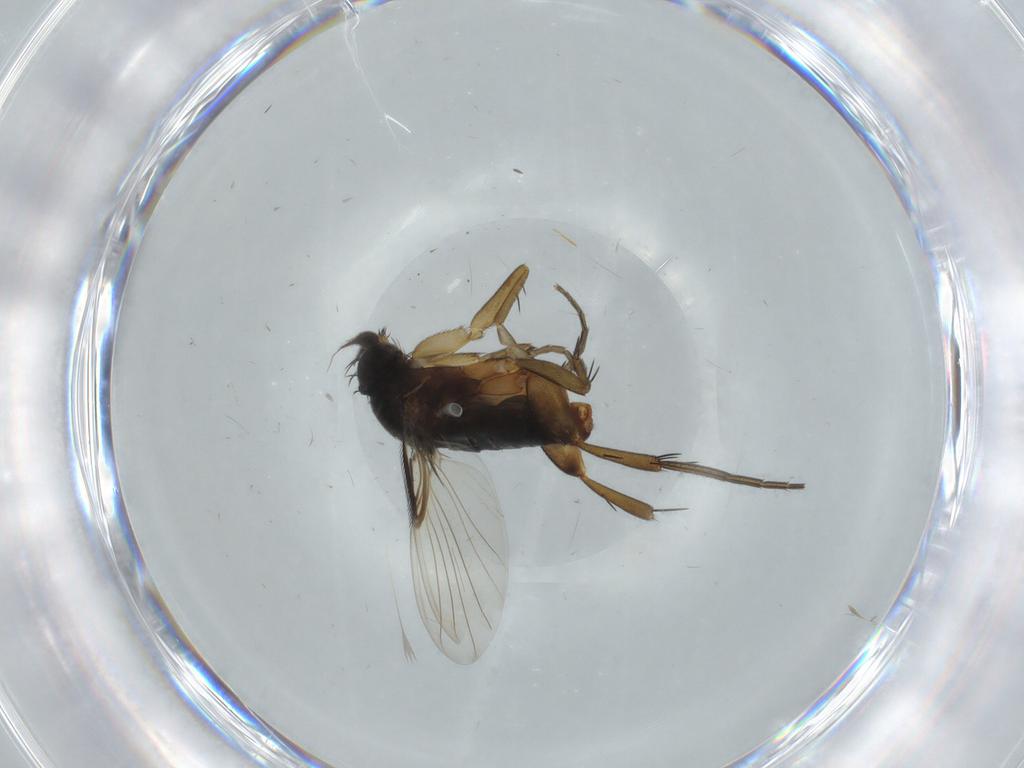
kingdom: Animalia
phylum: Arthropoda
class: Insecta
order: Diptera
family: Phoridae
